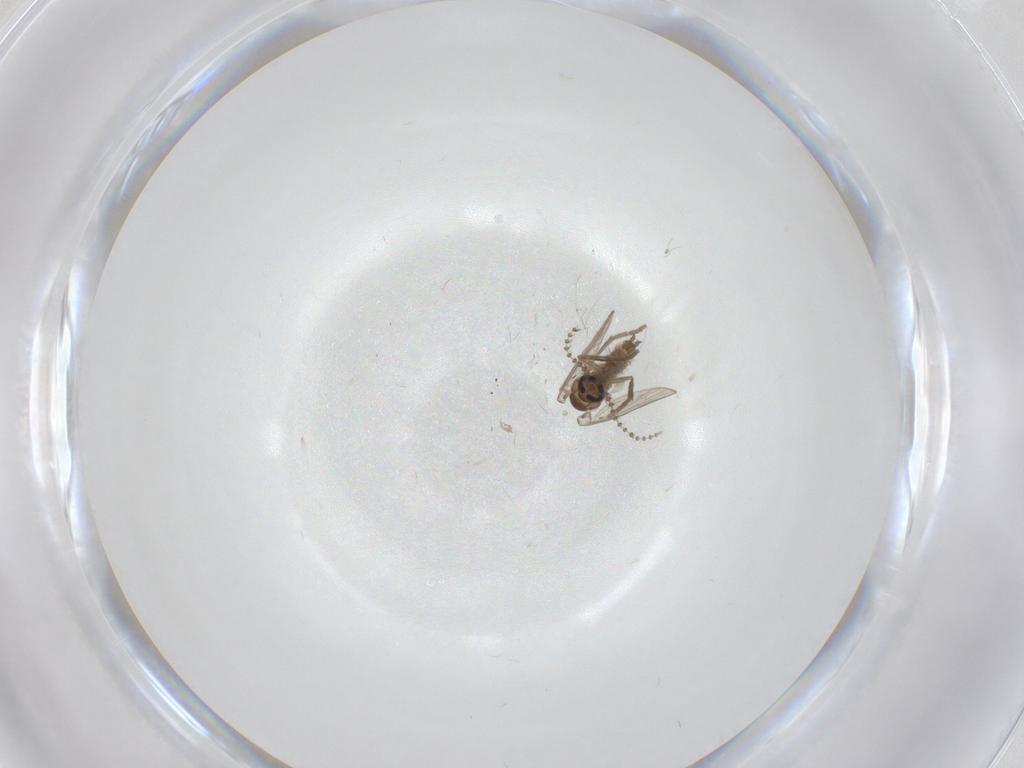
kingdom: Animalia
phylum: Arthropoda
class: Insecta
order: Diptera
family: Psychodidae
